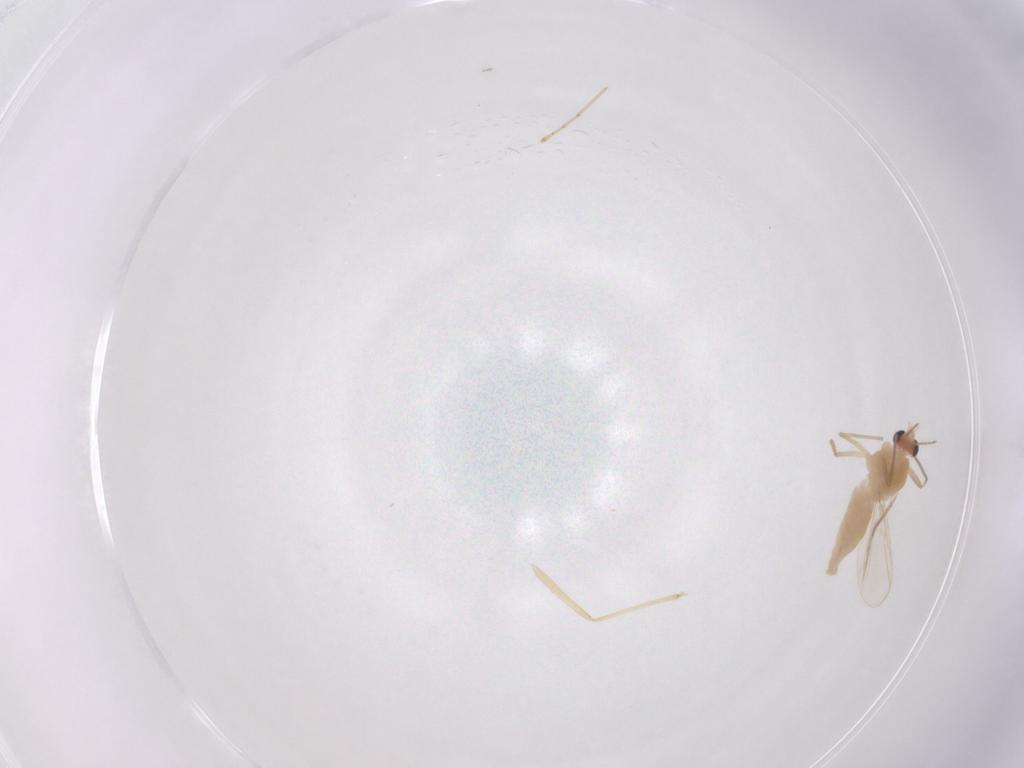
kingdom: Animalia
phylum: Arthropoda
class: Insecta
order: Diptera
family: Chironomidae
